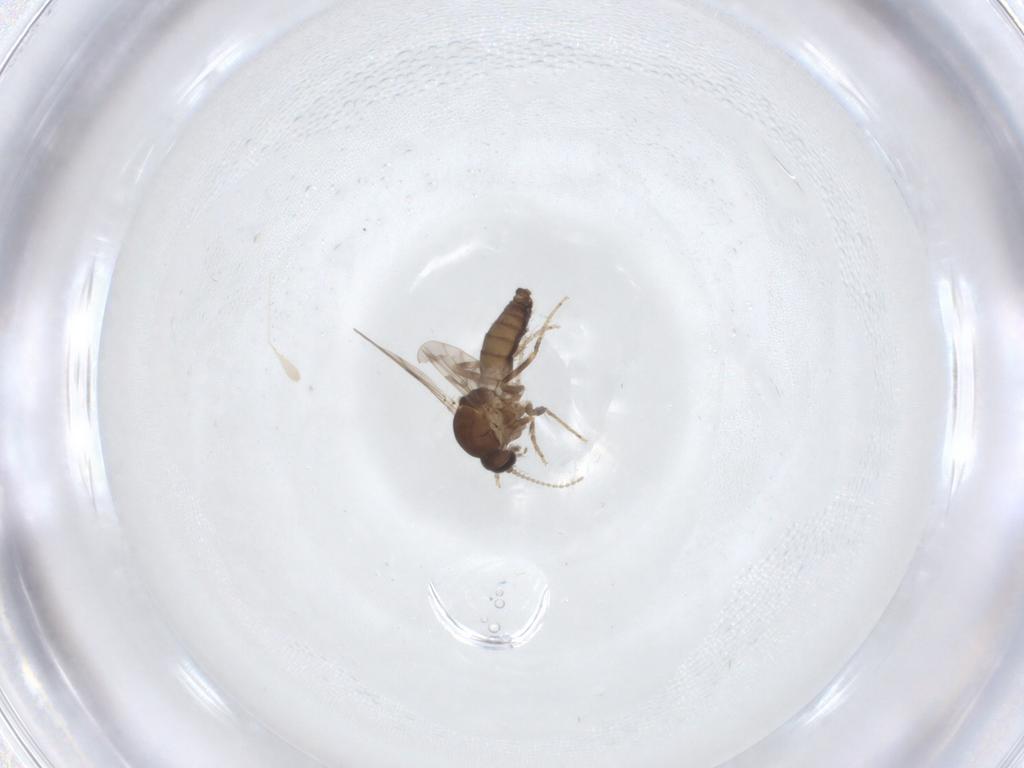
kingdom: Animalia
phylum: Arthropoda
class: Insecta
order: Diptera
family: Ceratopogonidae
